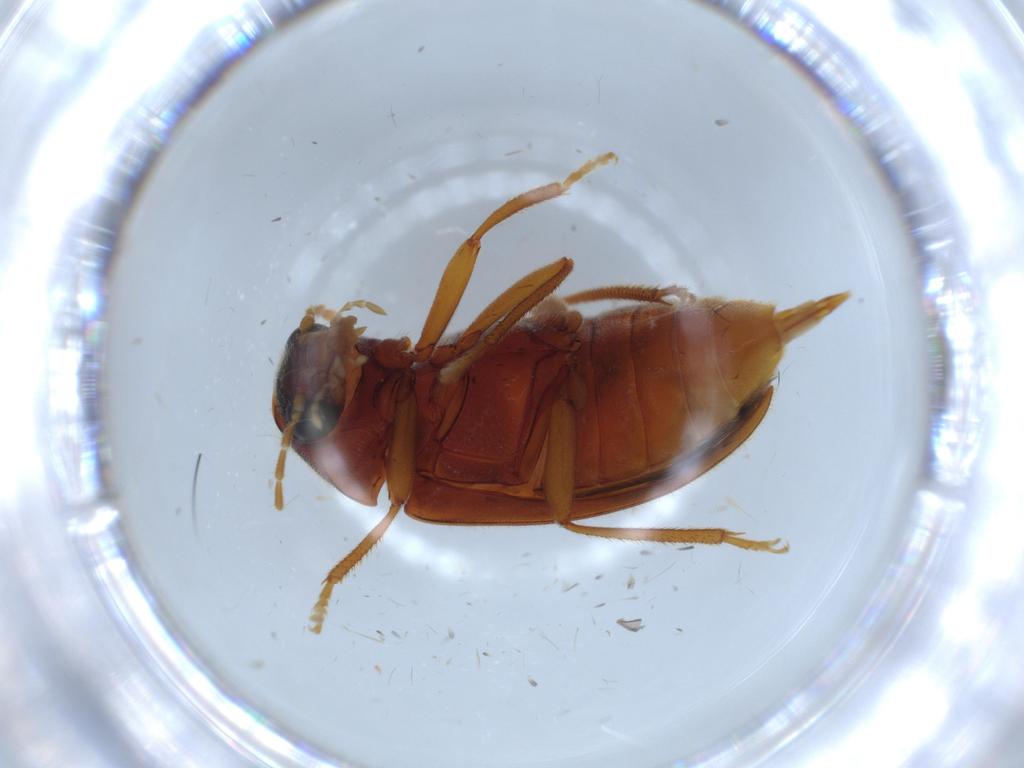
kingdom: Animalia
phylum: Arthropoda
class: Insecta
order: Coleoptera
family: Ptilodactylidae
